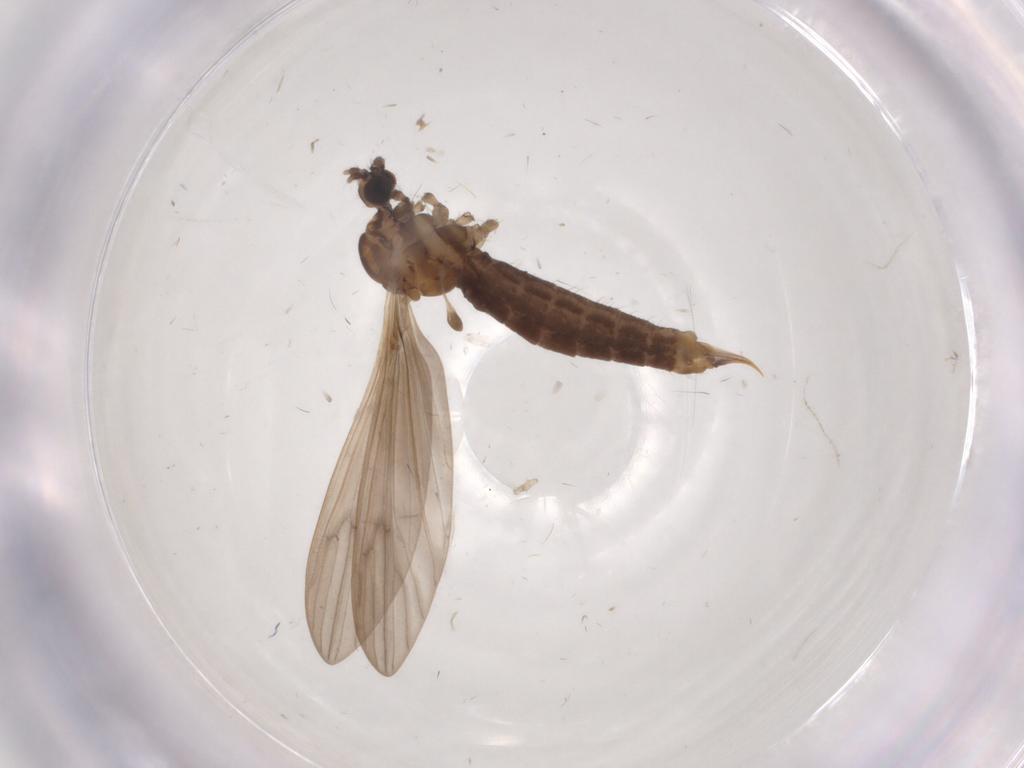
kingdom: Animalia
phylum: Arthropoda
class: Insecta
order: Diptera
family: Limoniidae
